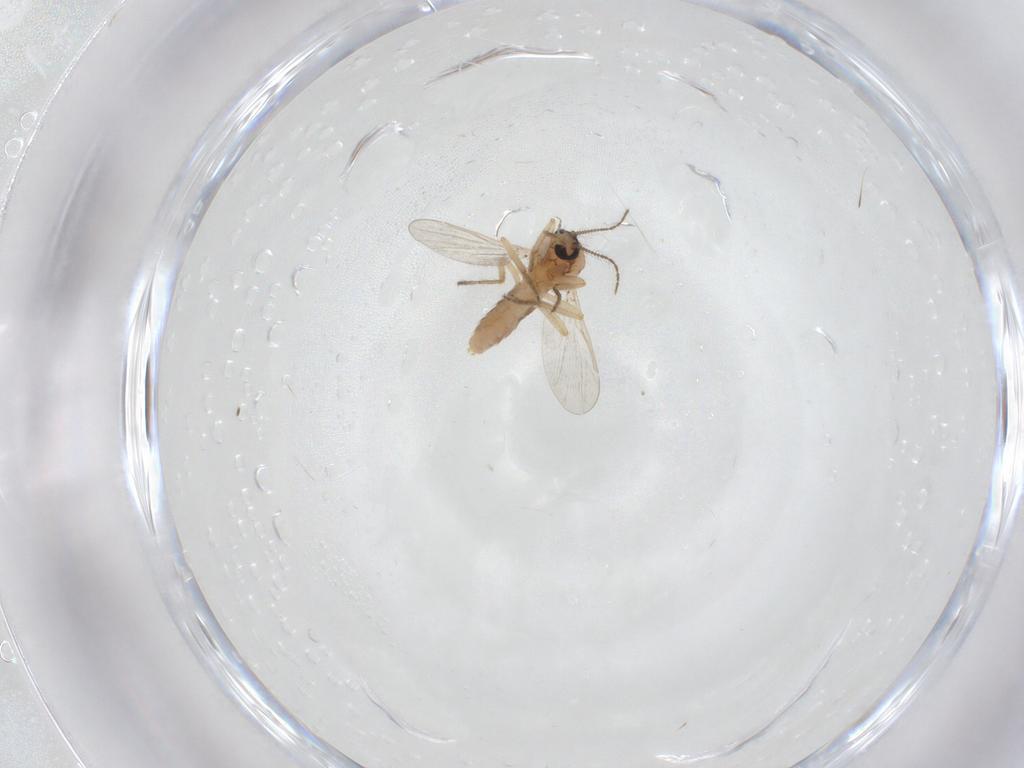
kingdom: Animalia
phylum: Arthropoda
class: Insecta
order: Diptera
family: Ceratopogonidae
